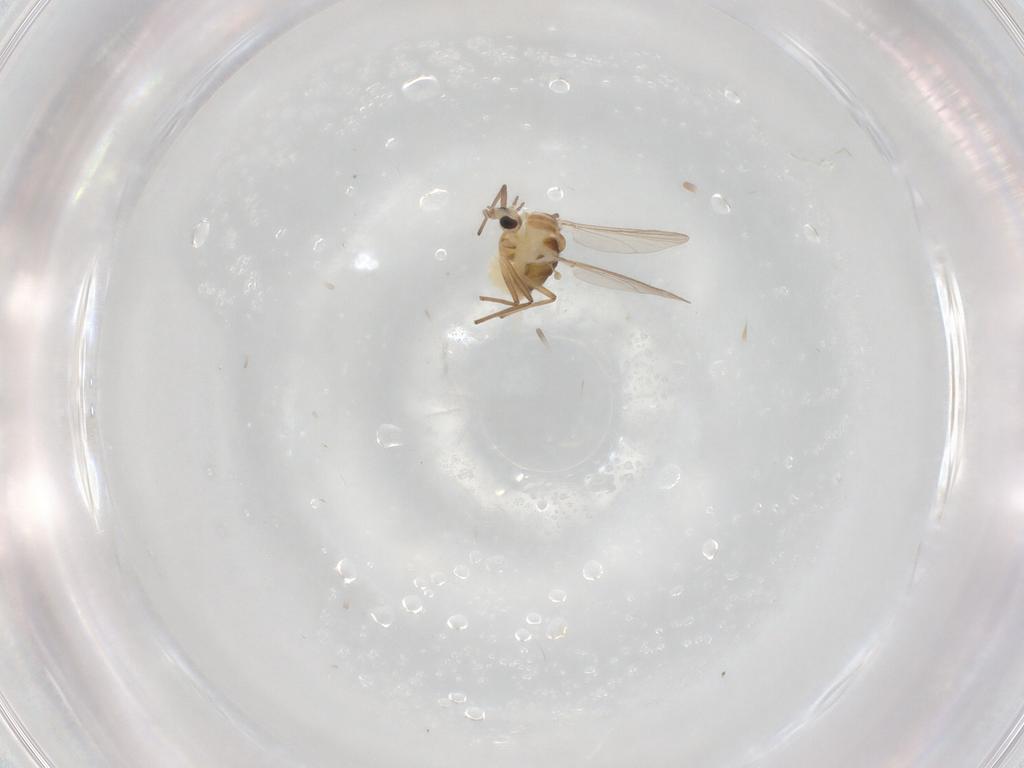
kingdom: Animalia
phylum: Arthropoda
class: Insecta
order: Diptera
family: Chironomidae
